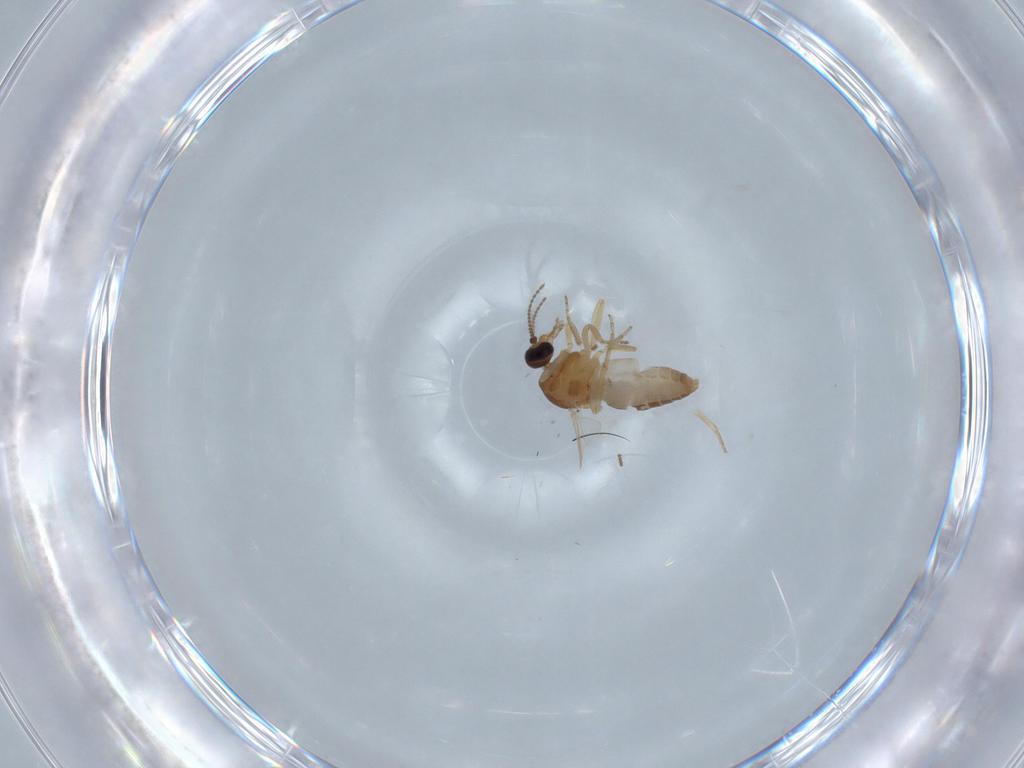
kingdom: Animalia
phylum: Arthropoda
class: Insecta
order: Diptera
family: Ceratopogonidae
